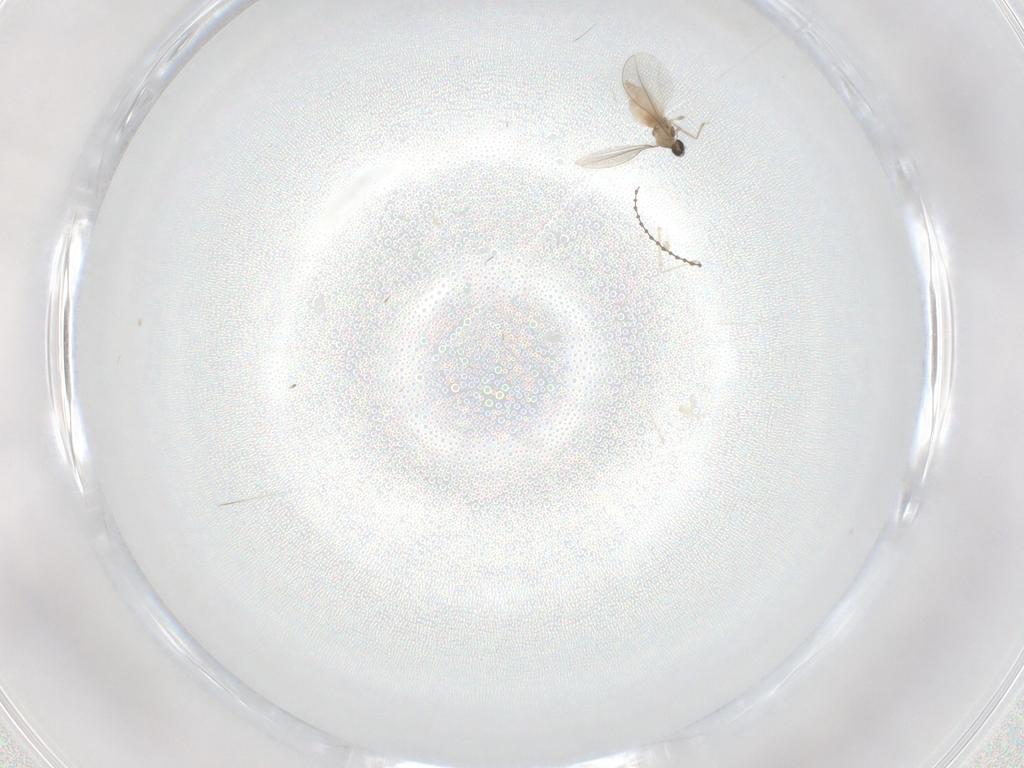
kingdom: Animalia
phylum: Arthropoda
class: Insecta
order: Diptera
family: Cecidomyiidae
